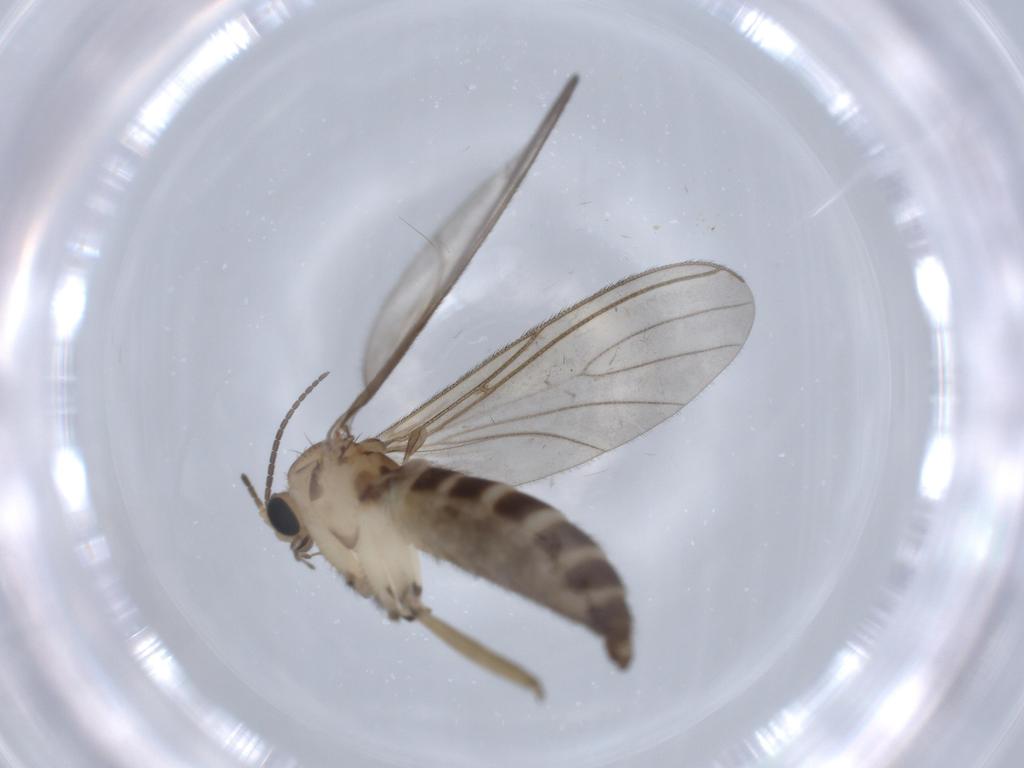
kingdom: Animalia
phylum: Arthropoda
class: Insecta
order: Diptera
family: Sciaridae
